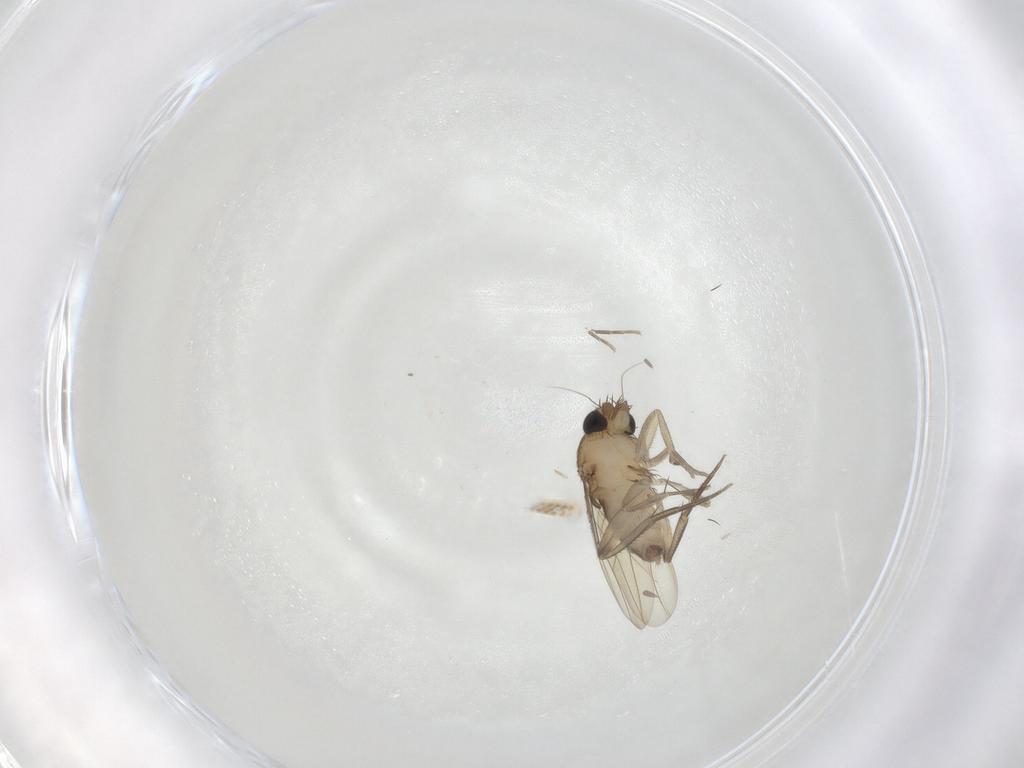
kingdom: Animalia
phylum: Arthropoda
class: Insecta
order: Diptera
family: Phoridae
